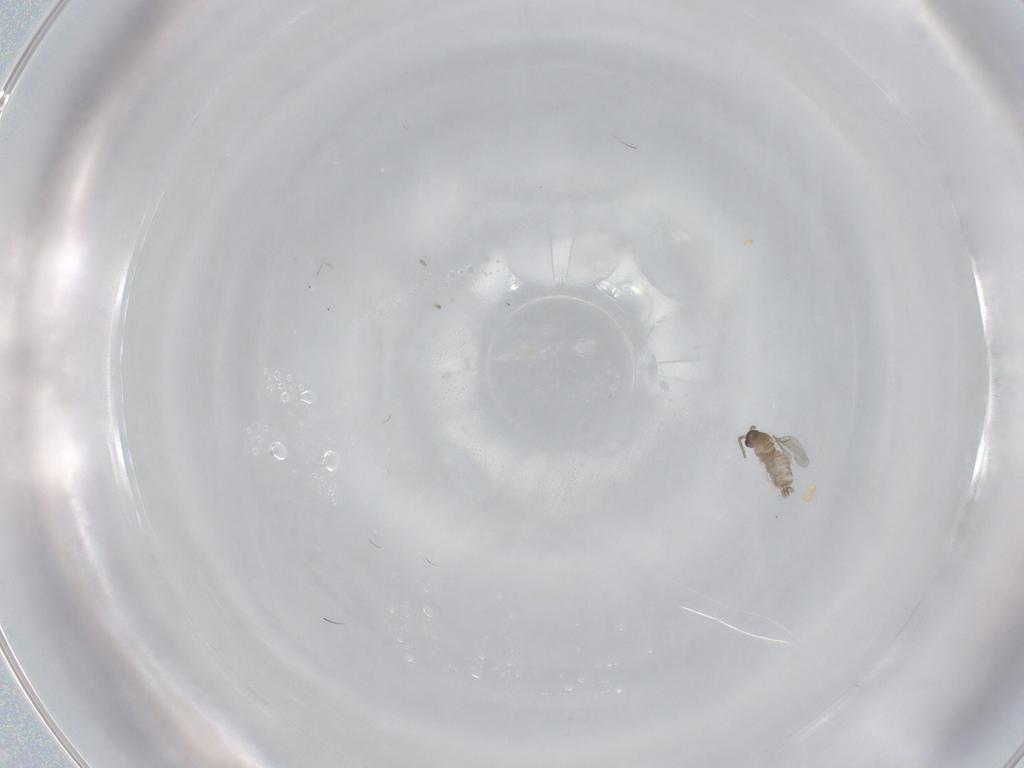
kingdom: Animalia
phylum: Arthropoda
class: Insecta
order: Diptera
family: Cecidomyiidae
